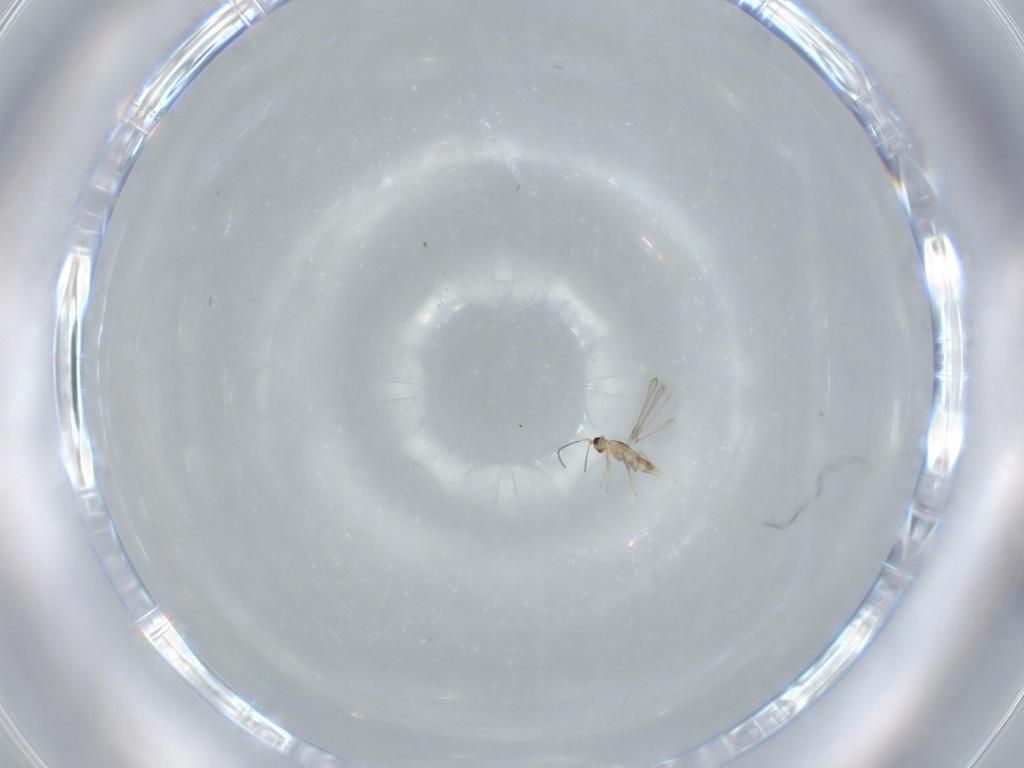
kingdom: Animalia
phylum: Arthropoda
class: Insecta
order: Hymenoptera
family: Mymaridae
